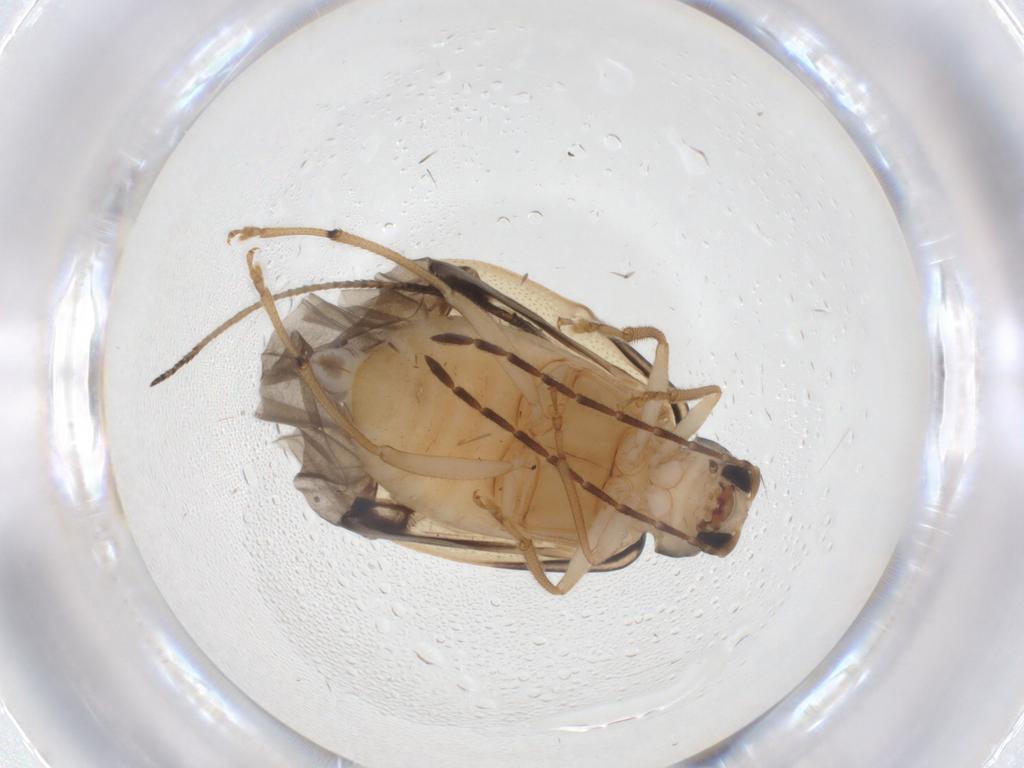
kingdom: Animalia
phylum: Arthropoda
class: Insecta
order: Coleoptera
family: Chrysomelidae
